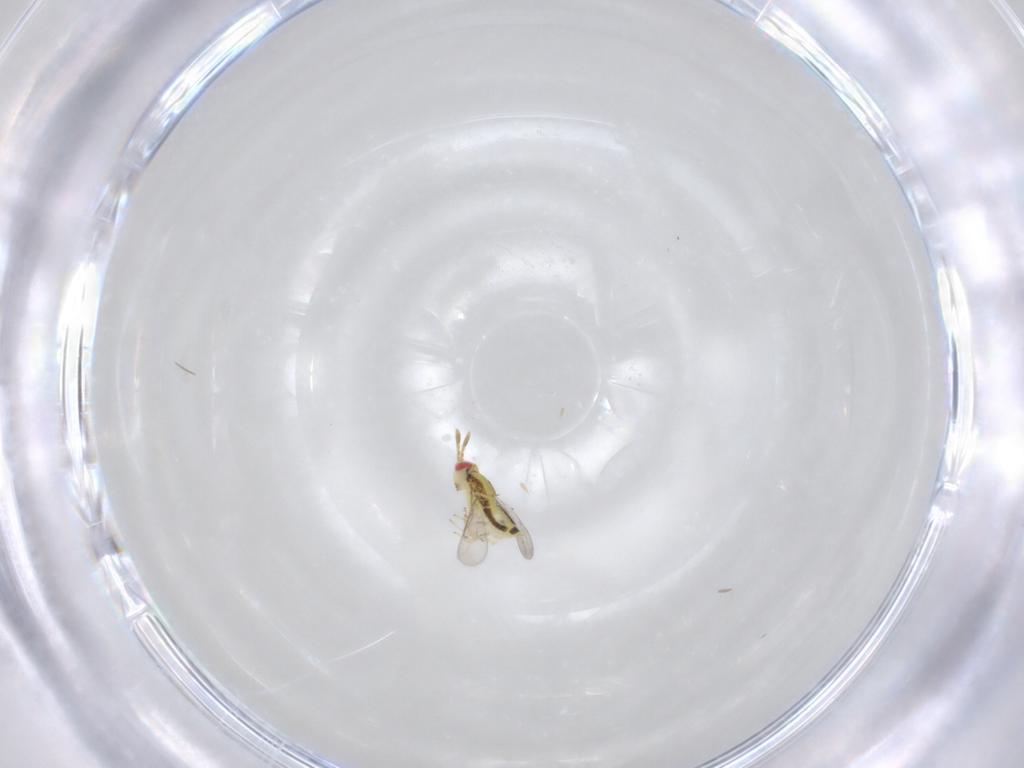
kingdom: Animalia
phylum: Arthropoda
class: Insecta
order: Hymenoptera
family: Aphelinidae
